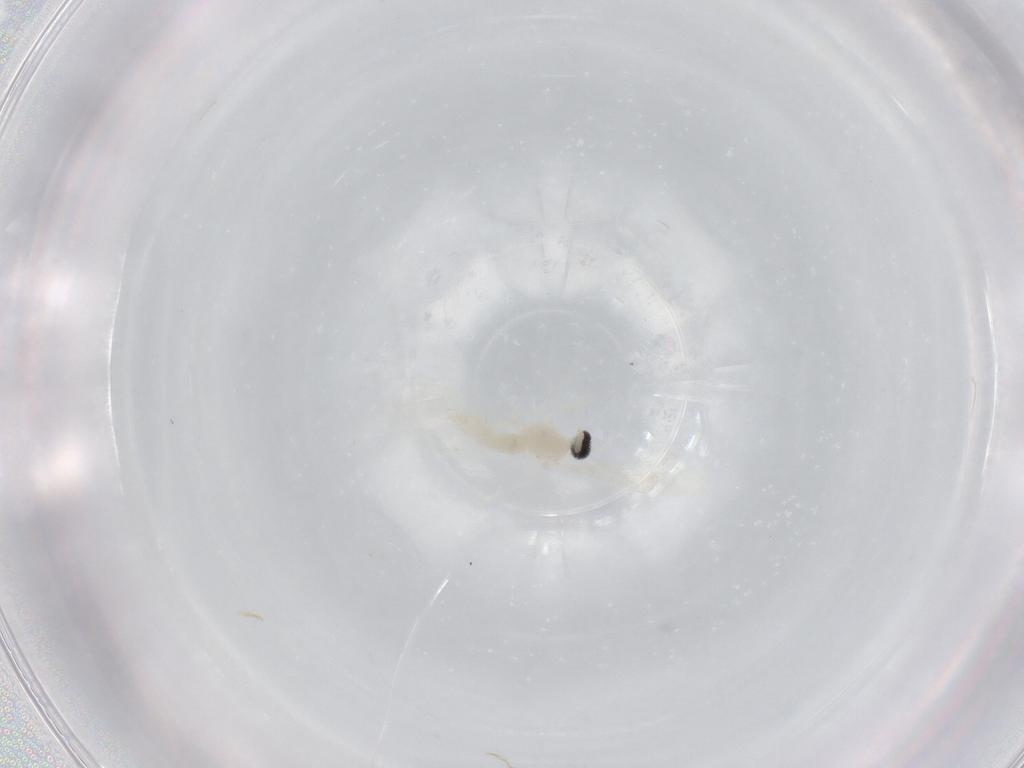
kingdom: Animalia
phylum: Arthropoda
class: Insecta
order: Diptera
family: Cecidomyiidae
